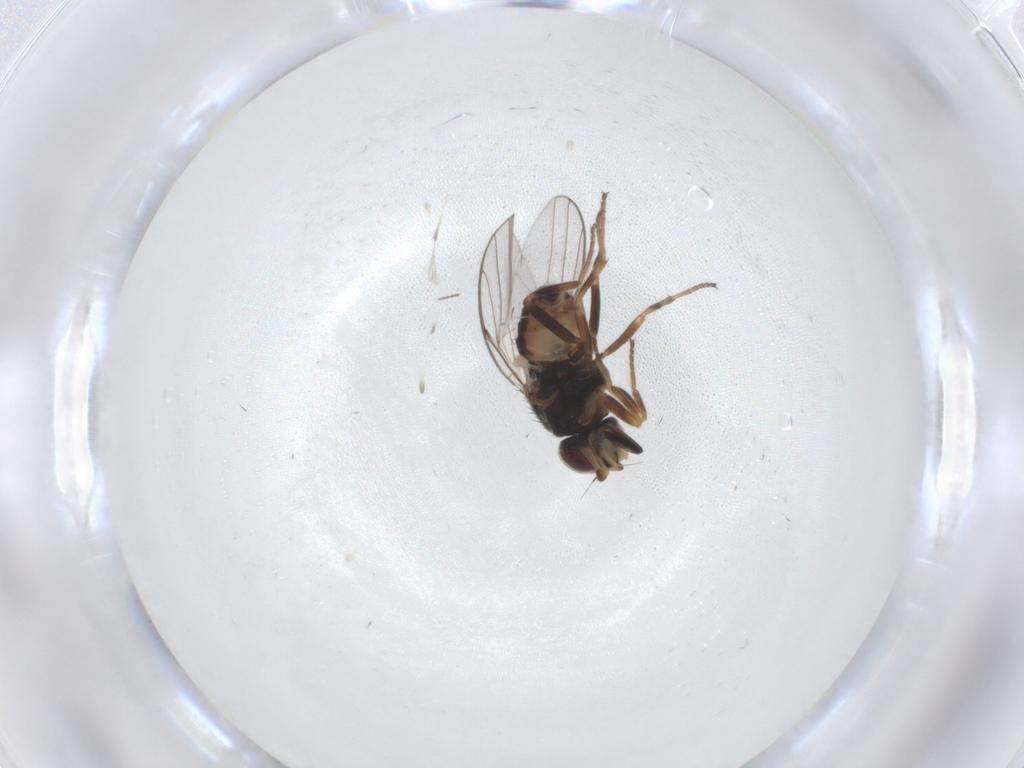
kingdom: Animalia
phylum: Arthropoda
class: Insecta
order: Diptera
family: Chloropidae
